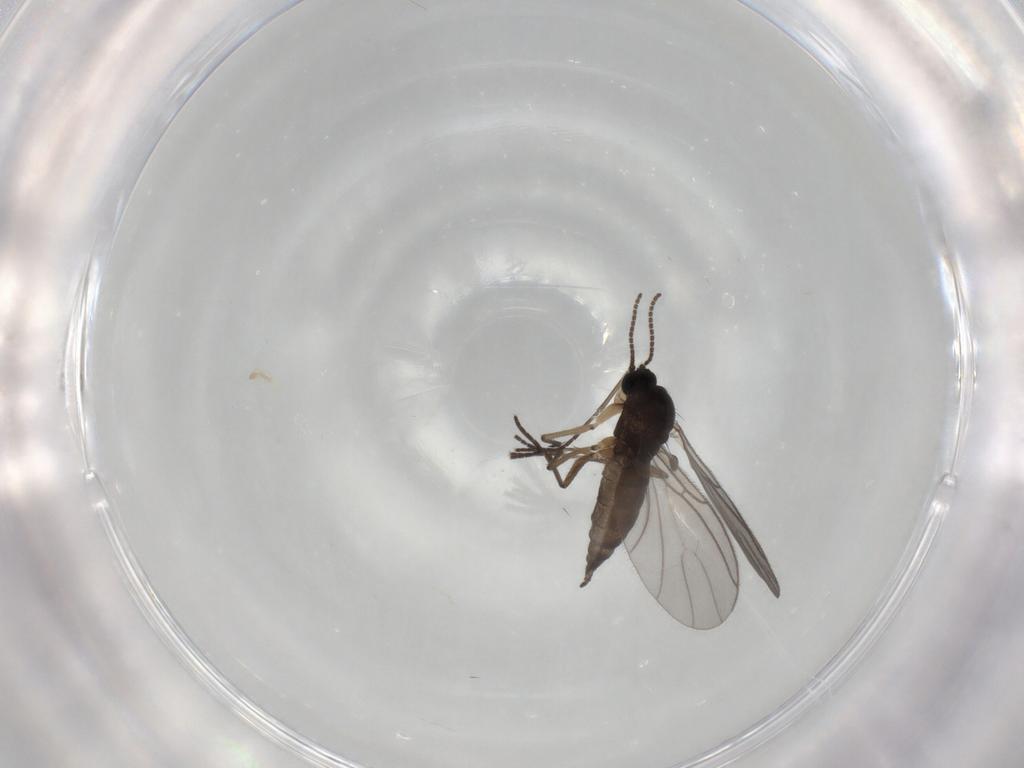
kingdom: Animalia
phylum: Arthropoda
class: Insecta
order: Diptera
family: Sciaridae
